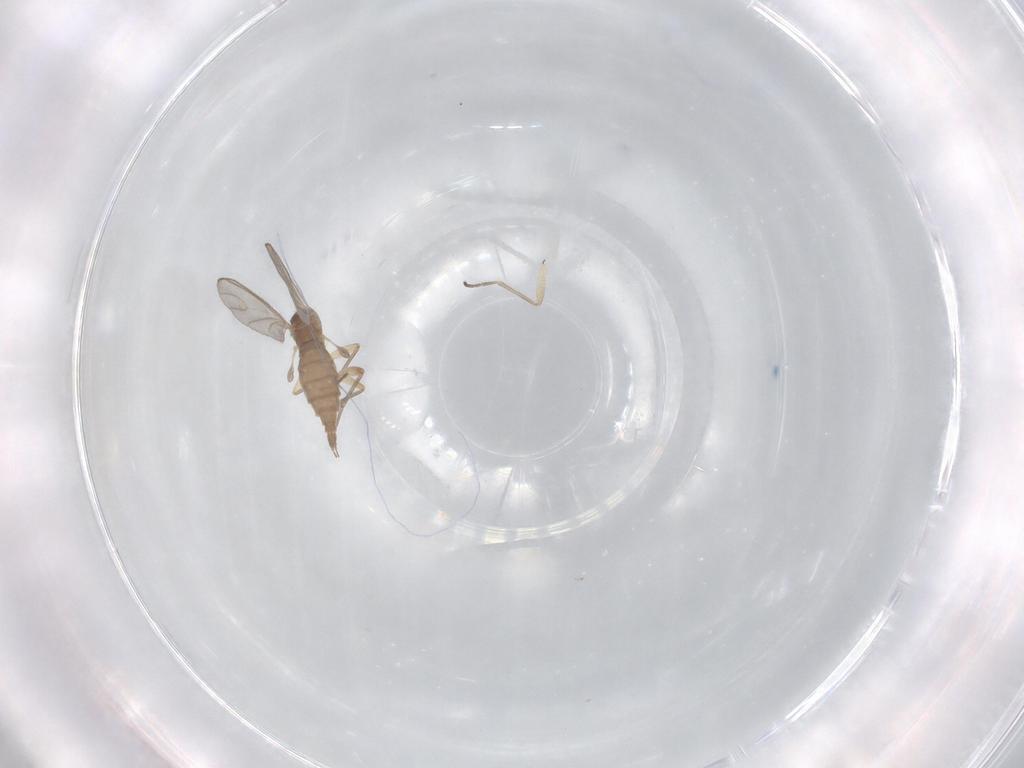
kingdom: Animalia
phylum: Arthropoda
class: Insecta
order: Diptera
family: Sciaridae
